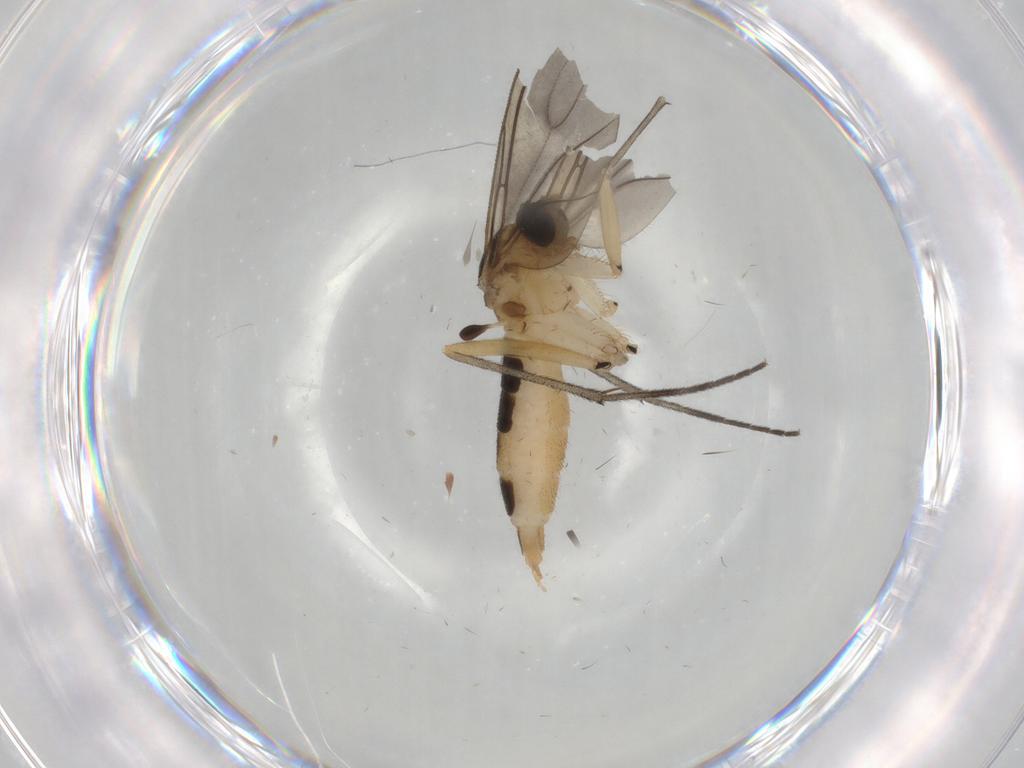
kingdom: Animalia
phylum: Arthropoda
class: Insecta
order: Diptera
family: Sciaridae
